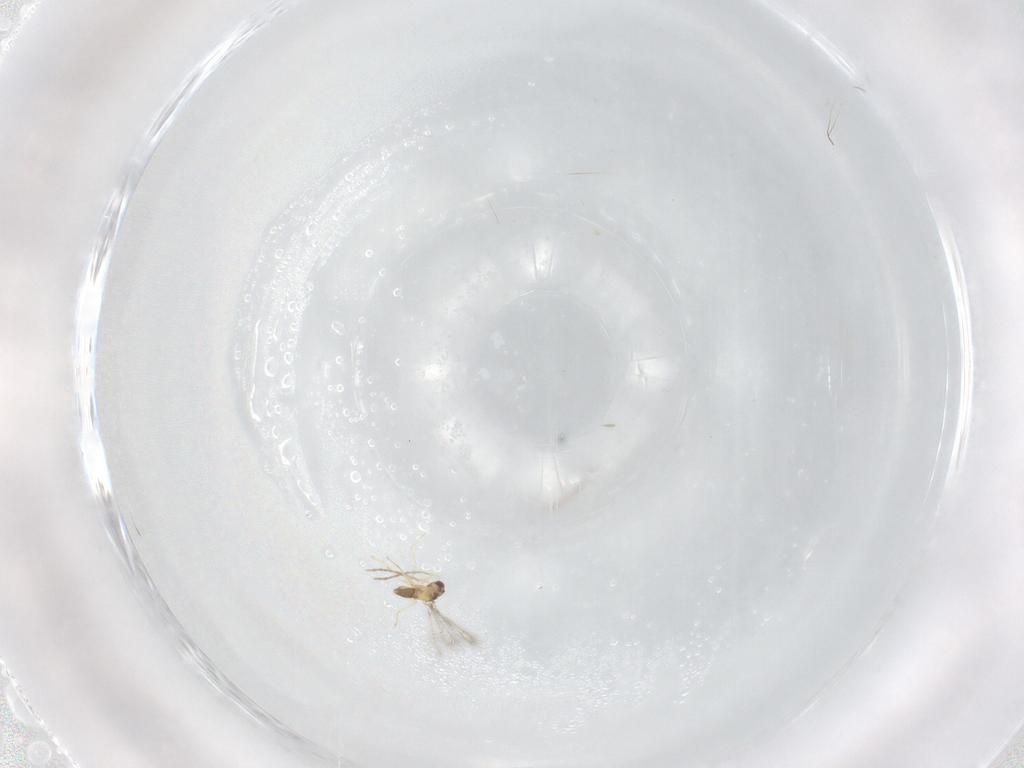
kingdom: Animalia
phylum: Arthropoda
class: Insecta
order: Hymenoptera
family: Mymaridae
